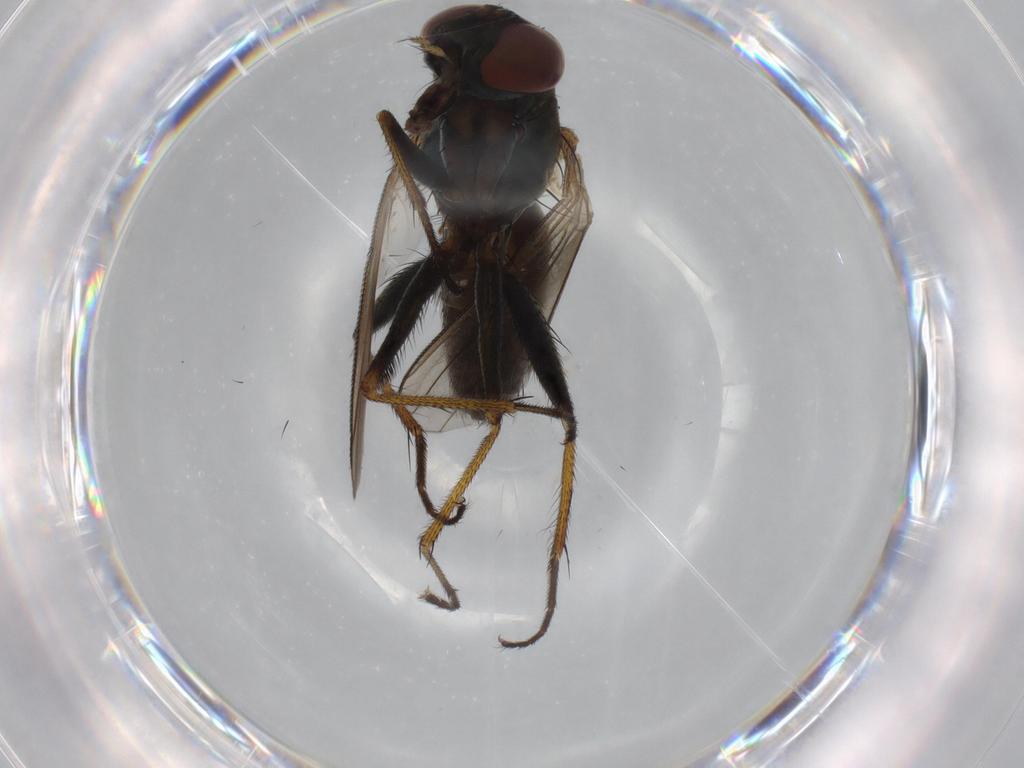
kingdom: Animalia
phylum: Arthropoda
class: Insecta
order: Diptera
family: Muscidae
